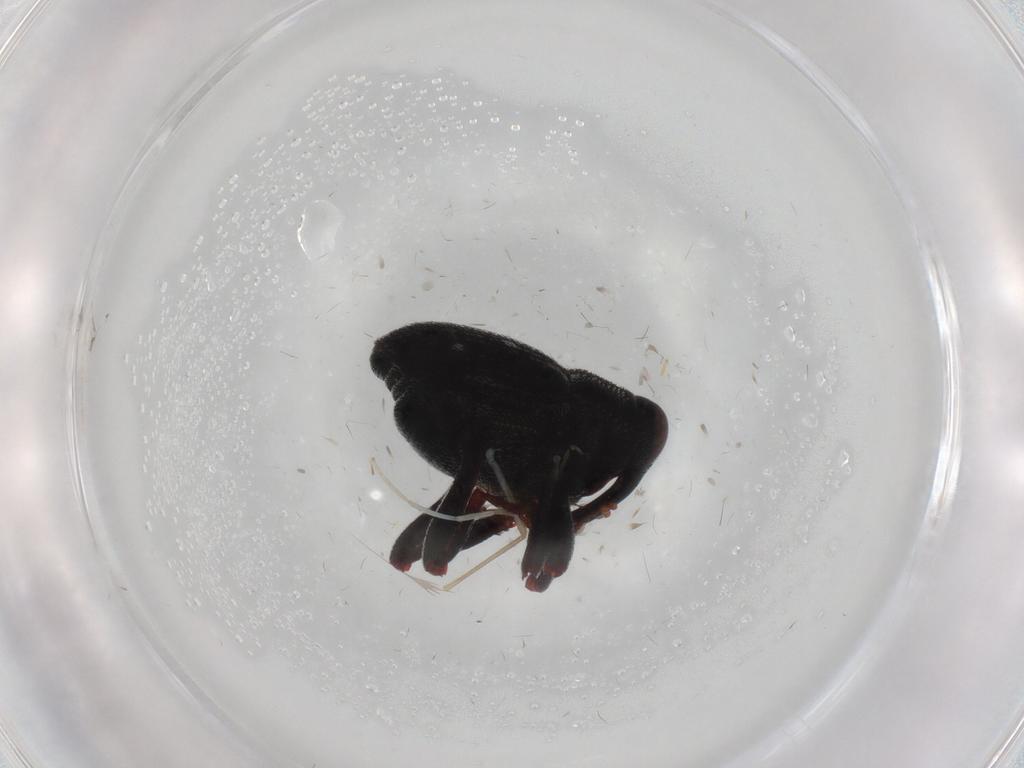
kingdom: Animalia
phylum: Arthropoda
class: Insecta
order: Coleoptera
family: Curculionidae
